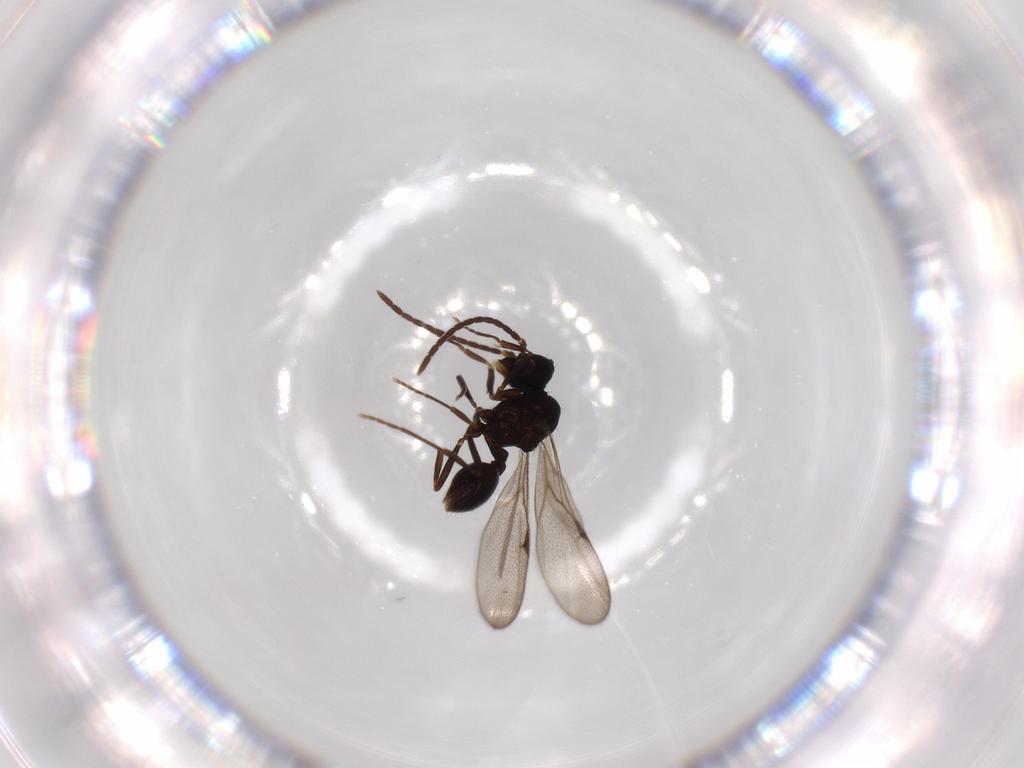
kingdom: Animalia
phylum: Arthropoda
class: Insecta
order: Hymenoptera
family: Formicidae
